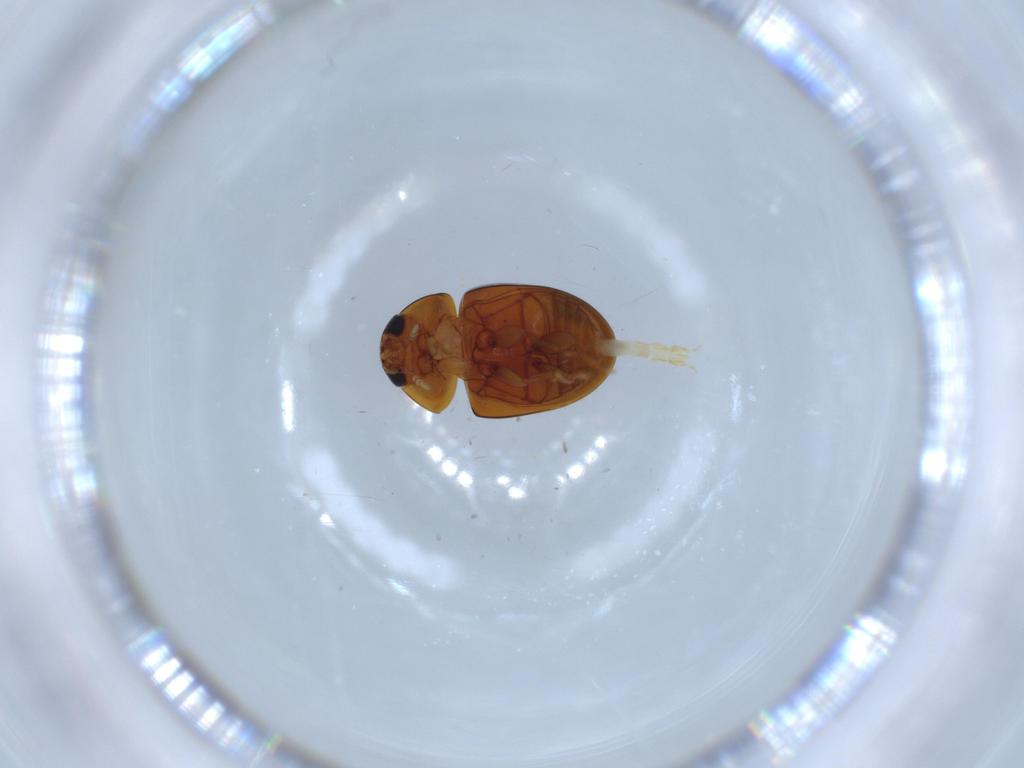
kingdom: Animalia
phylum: Arthropoda
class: Insecta
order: Coleoptera
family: Phalacridae
